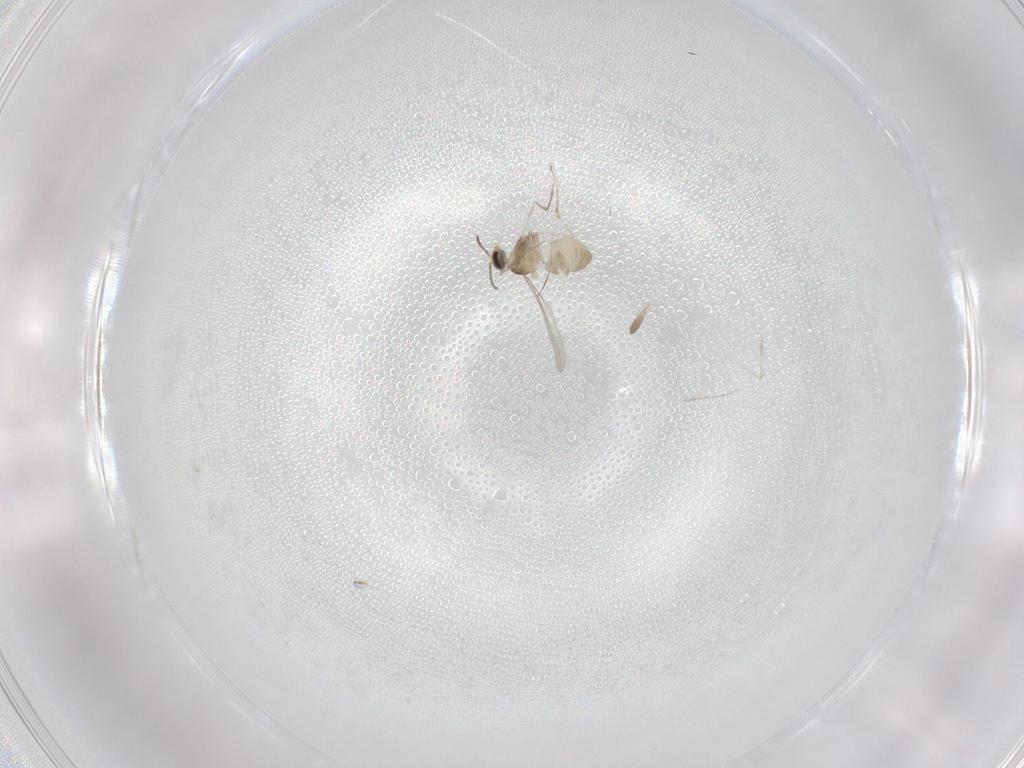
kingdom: Animalia
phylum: Arthropoda
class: Insecta
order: Diptera
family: Cecidomyiidae
